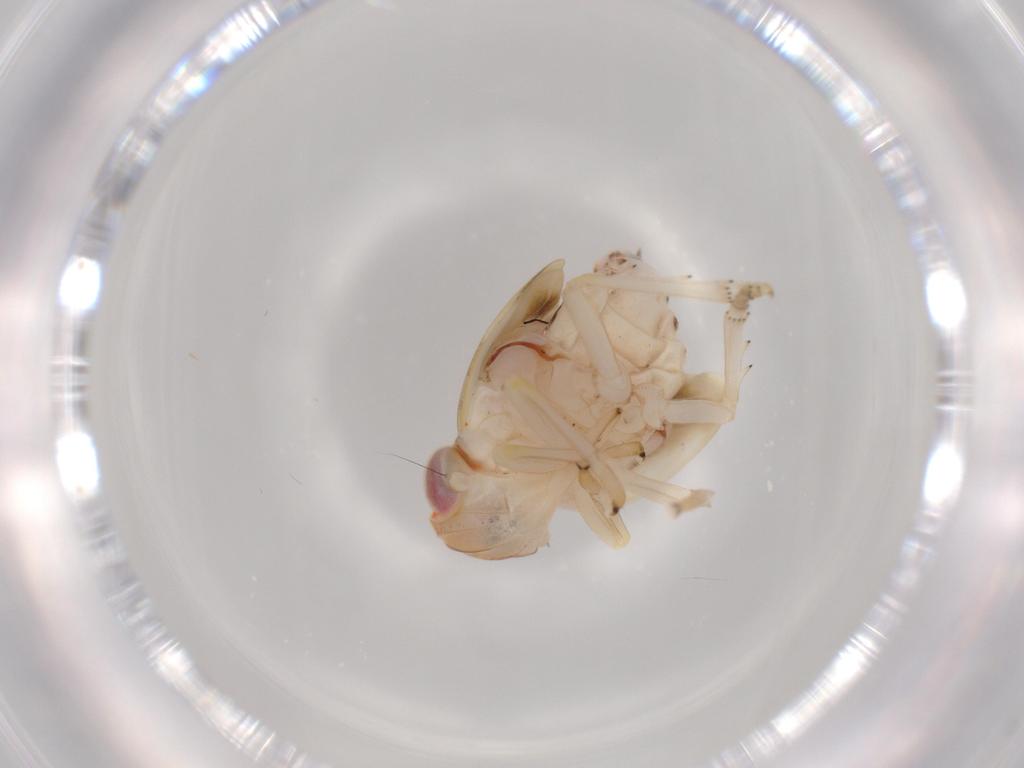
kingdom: Animalia
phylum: Arthropoda
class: Insecta
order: Hemiptera
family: Nogodinidae
